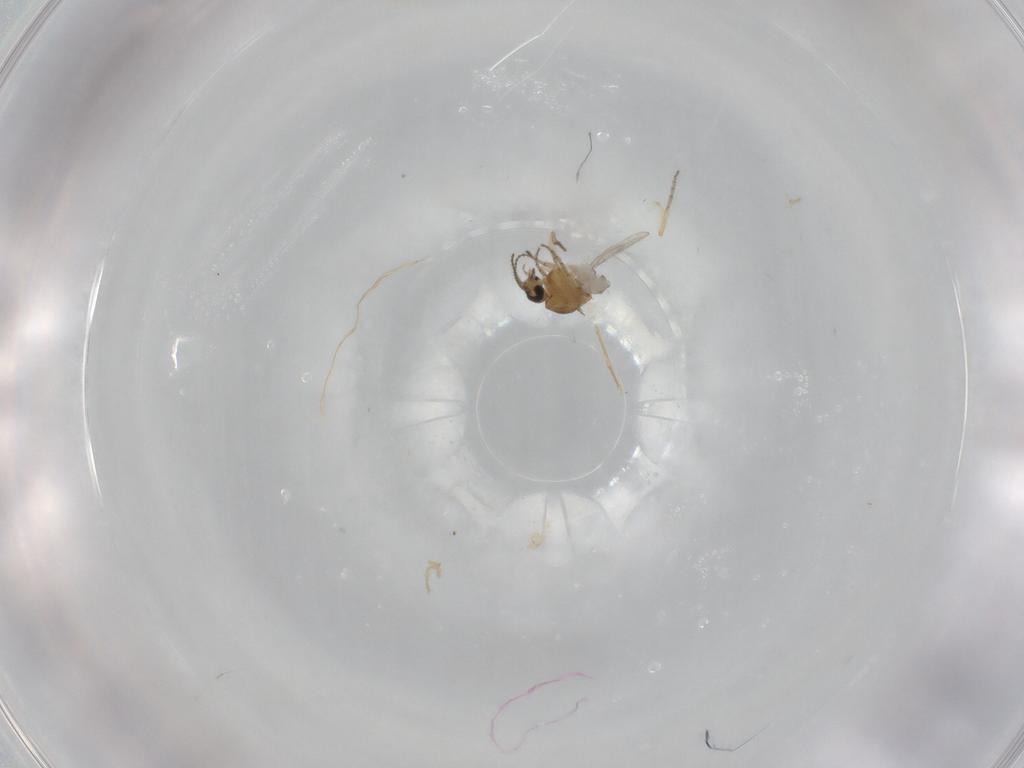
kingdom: Animalia
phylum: Arthropoda
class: Insecta
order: Diptera
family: Ceratopogonidae
